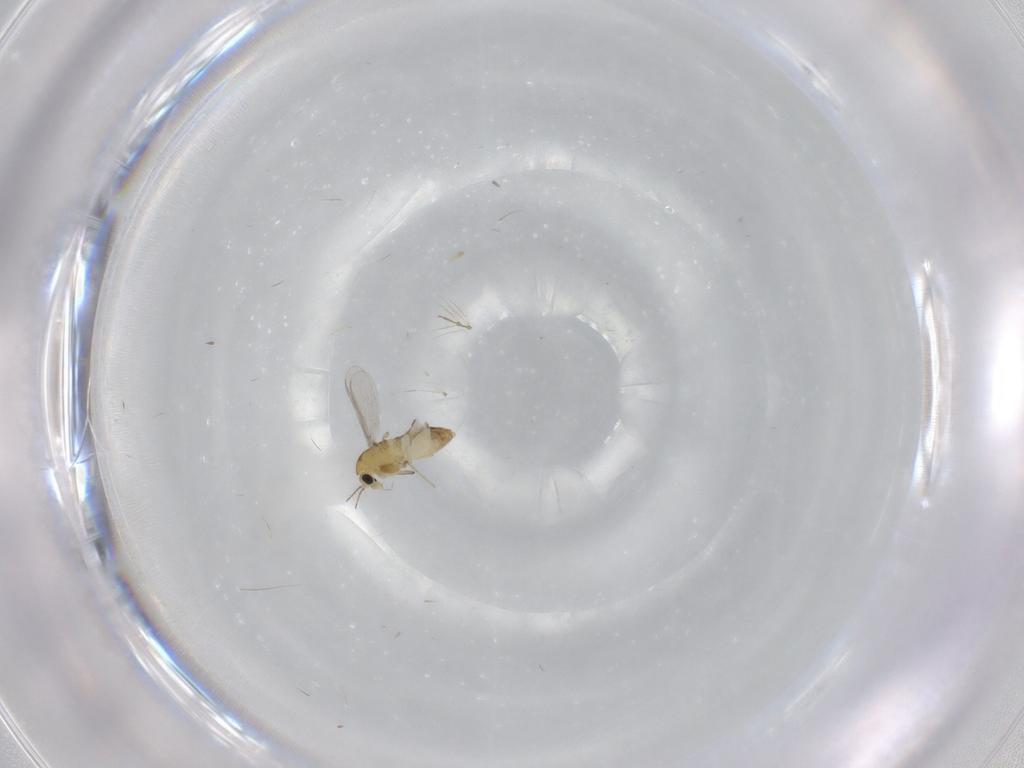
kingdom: Animalia
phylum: Arthropoda
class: Insecta
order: Diptera
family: Chironomidae
